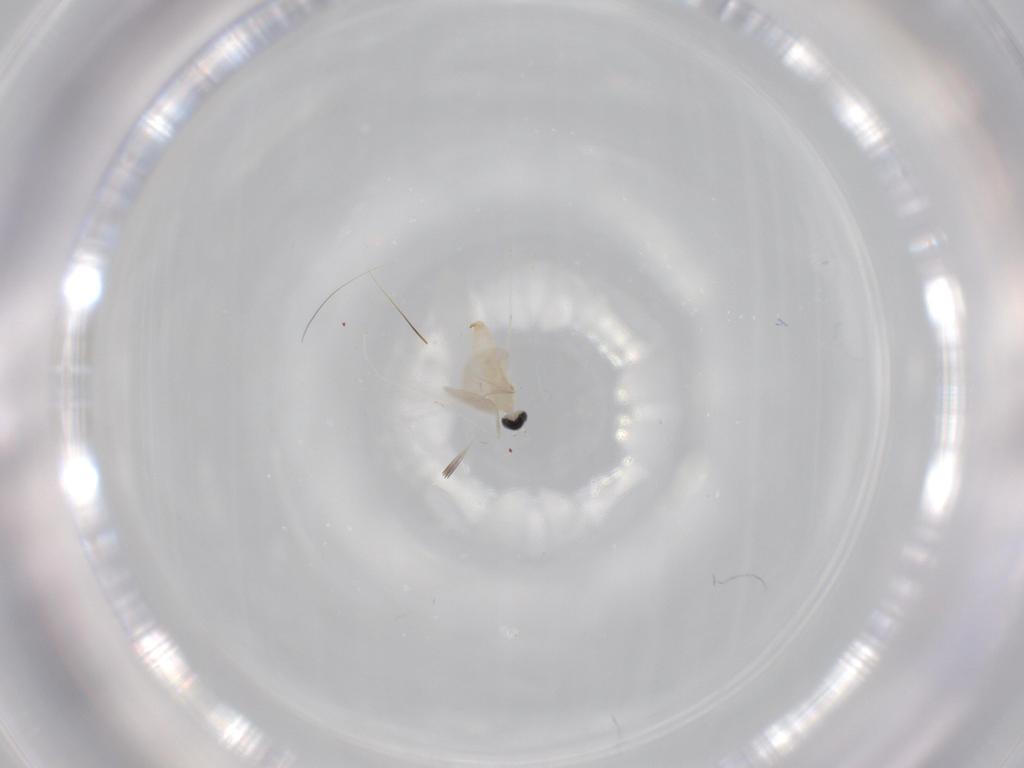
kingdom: Animalia
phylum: Arthropoda
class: Insecta
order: Diptera
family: Cecidomyiidae
